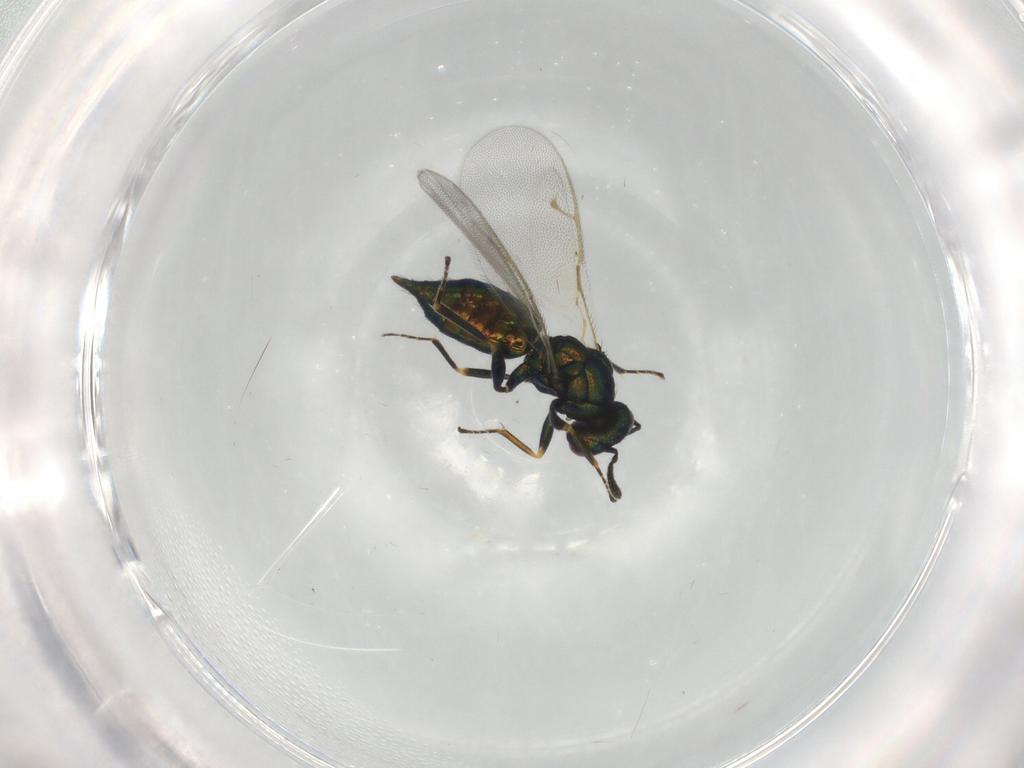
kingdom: Animalia
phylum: Arthropoda
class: Insecta
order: Hymenoptera
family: Pteromalidae
